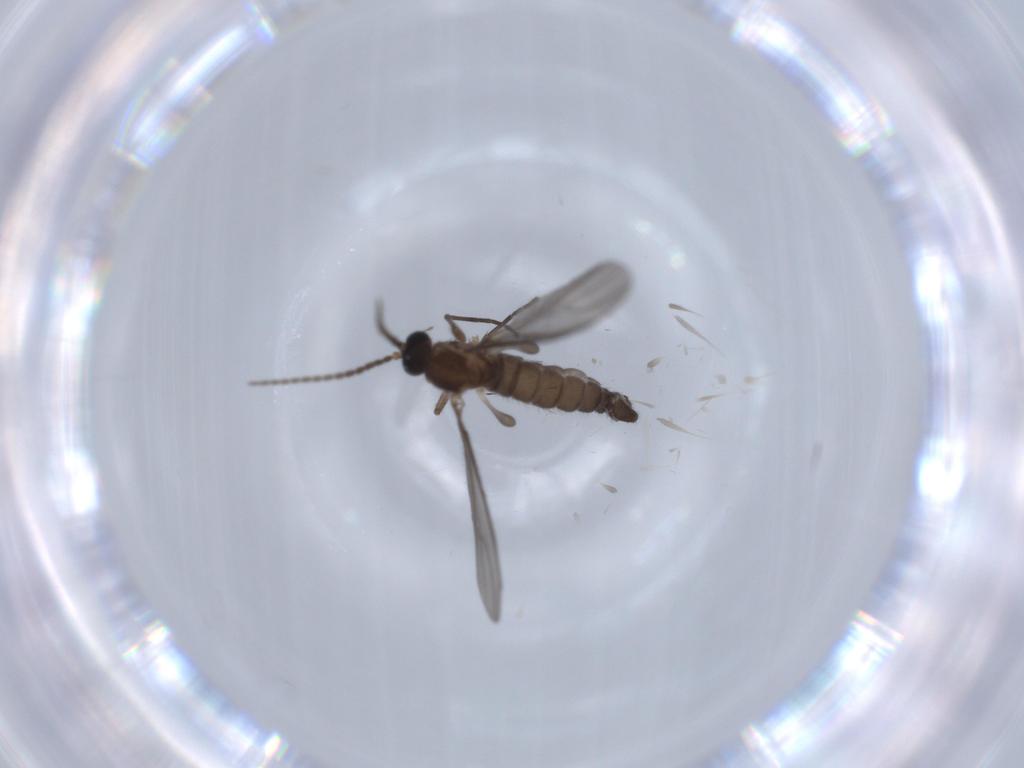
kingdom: Animalia
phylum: Arthropoda
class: Insecta
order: Diptera
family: Sciaridae
